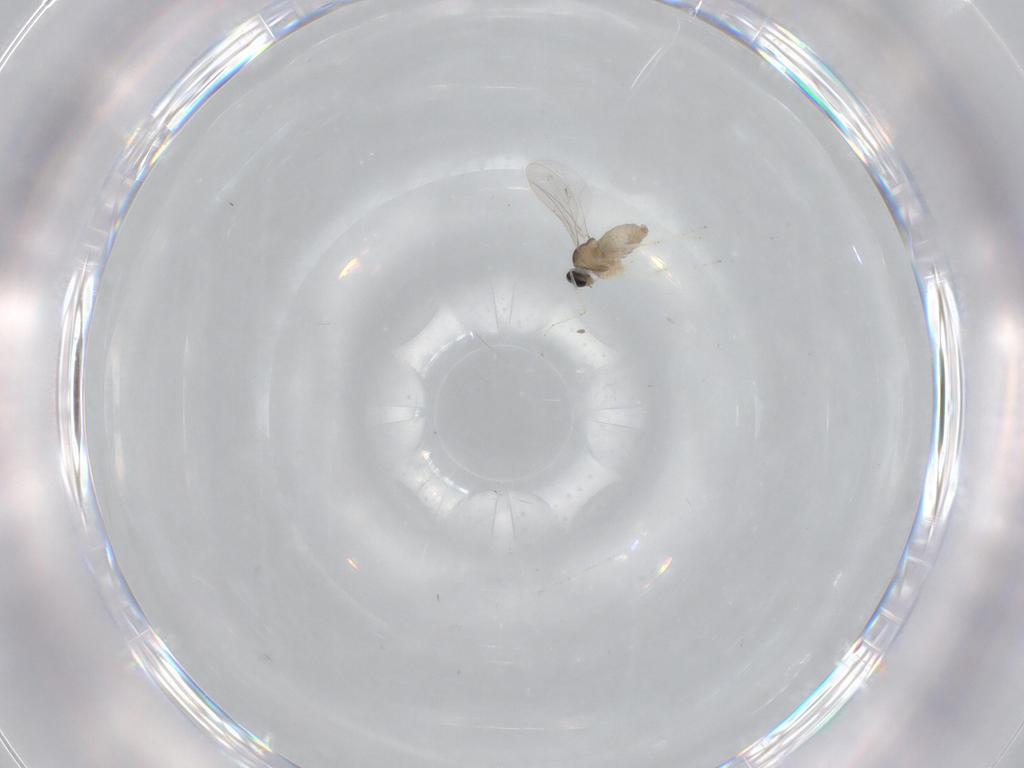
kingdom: Animalia
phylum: Arthropoda
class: Insecta
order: Diptera
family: Cecidomyiidae
